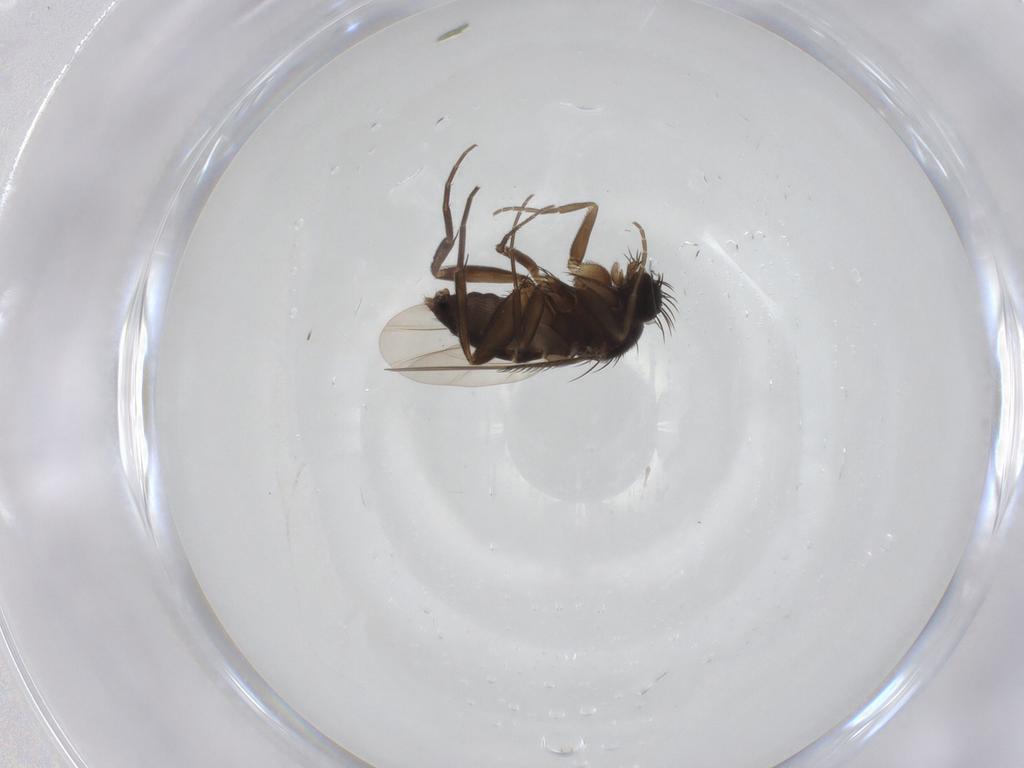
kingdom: Animalia
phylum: Arthropoda
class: Insecta
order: Diptera
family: Phoridae
